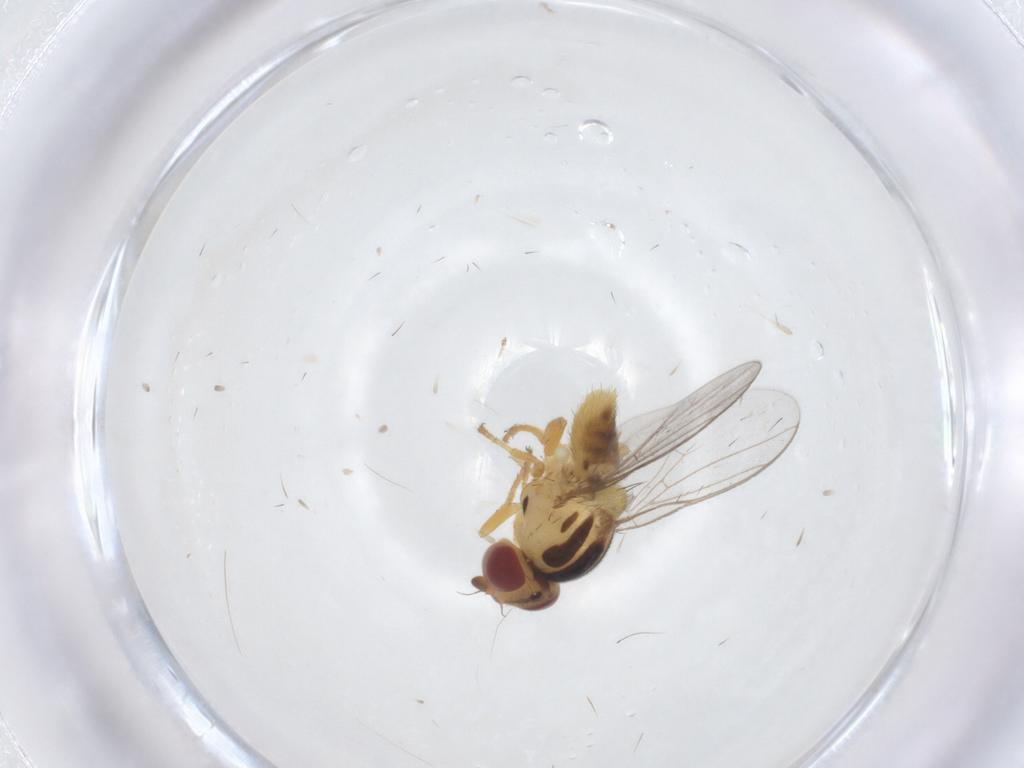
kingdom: Animalia
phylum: Arthropoda
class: Insecta
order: Diptera
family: Chloropidae
